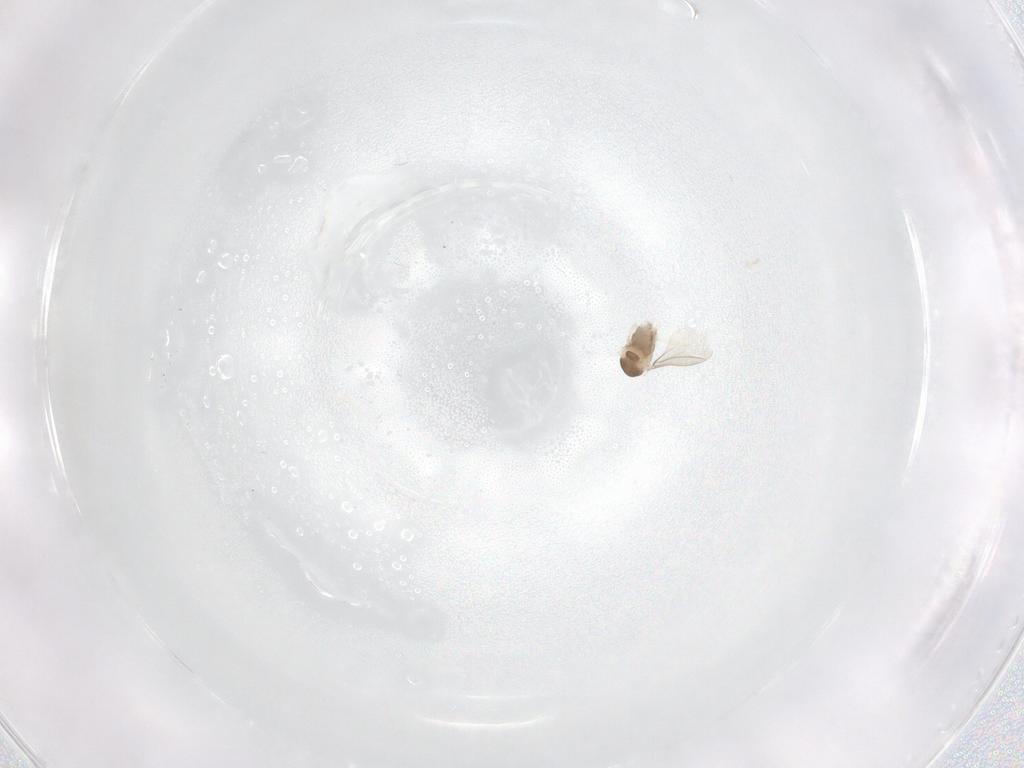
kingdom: Animalia
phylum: Arthropoda
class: Insecta
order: Diptera
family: Cecidomyiidae
